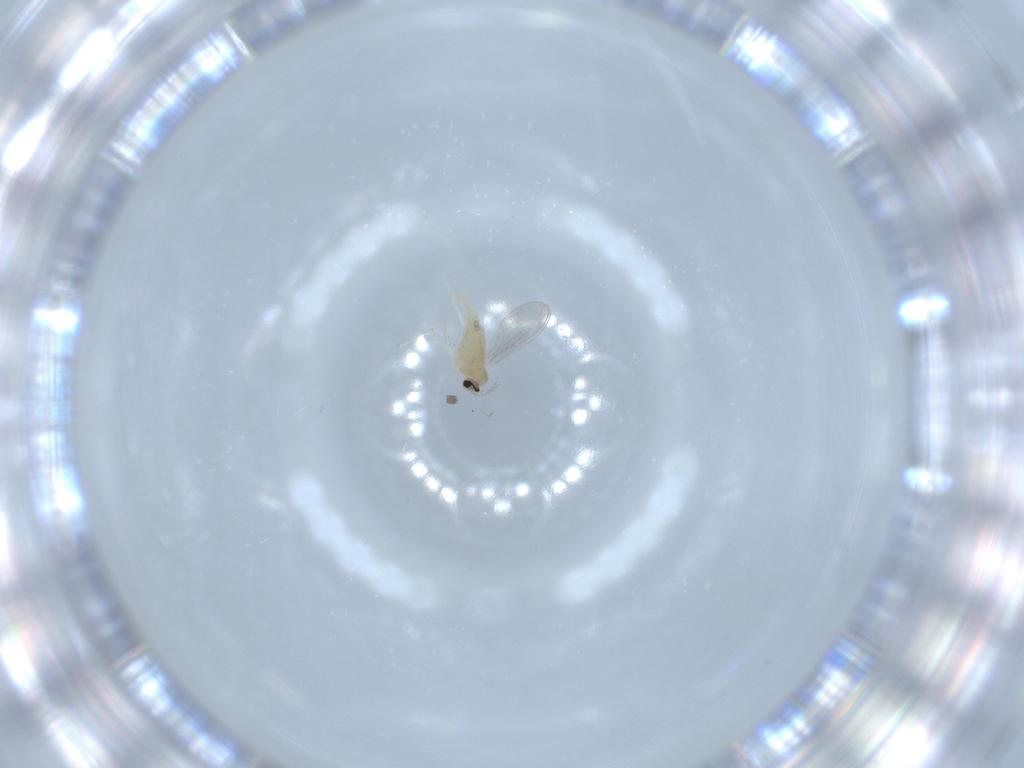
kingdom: Animalia
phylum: Arthropoda
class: Insecta
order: Diptera
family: Cecidomyiidae
